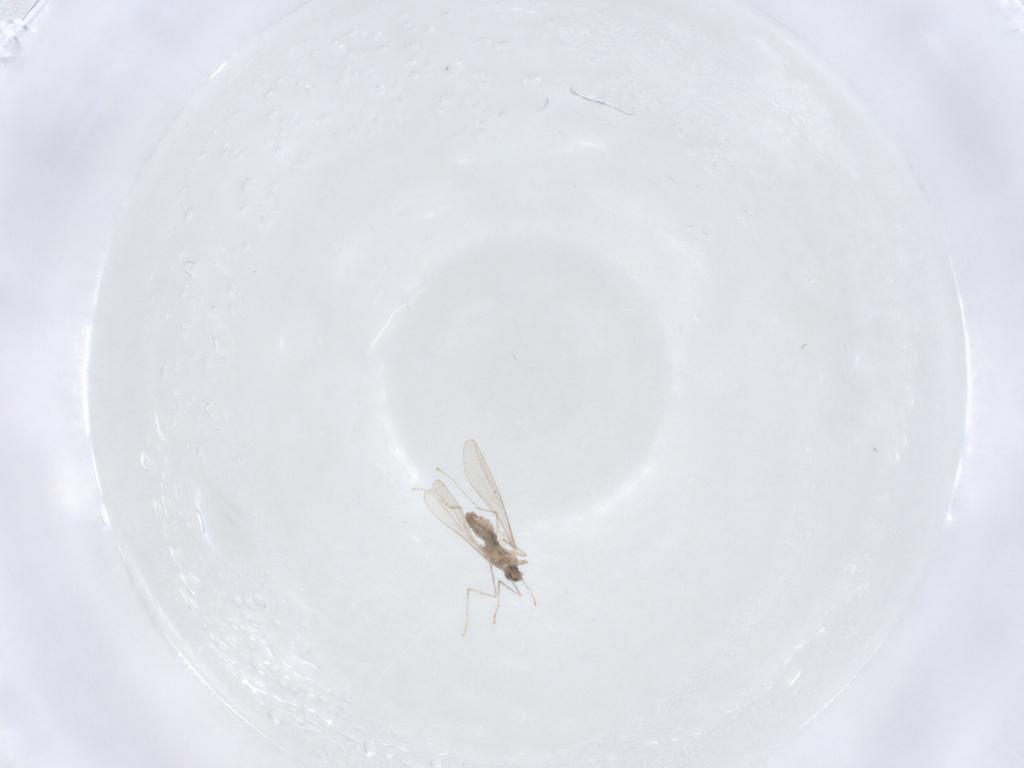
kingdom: Animalia
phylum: Arthropoda
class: Insecta
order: Diptera
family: Cecidomyiidae
